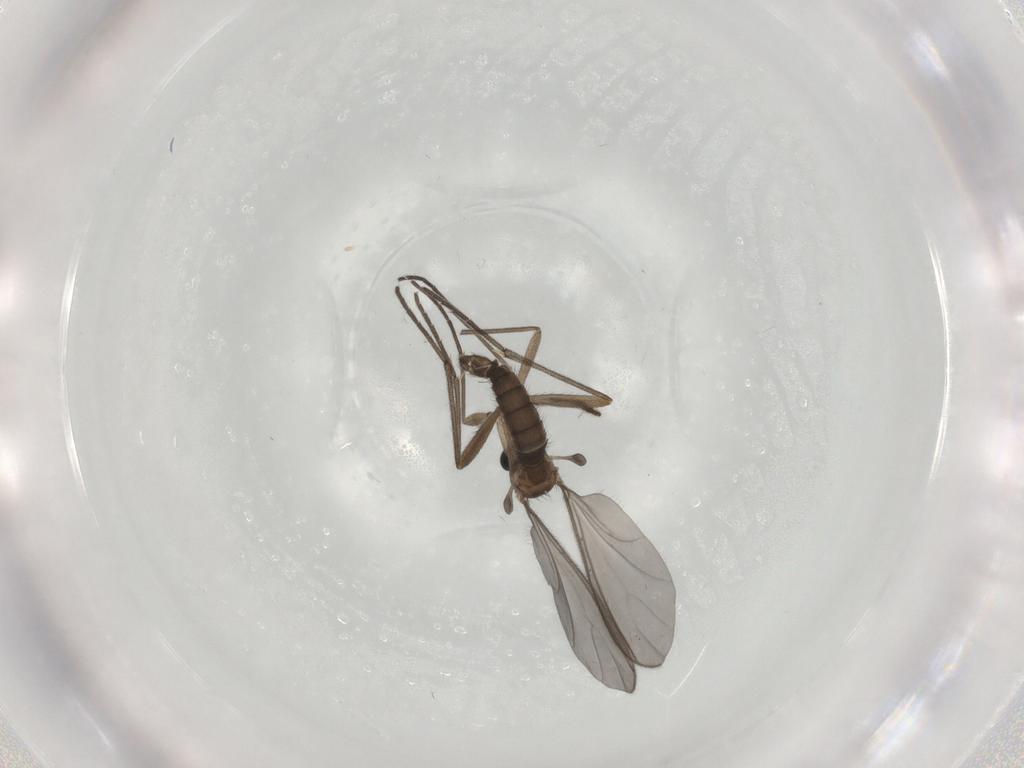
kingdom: Animalia
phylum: Arthropoda
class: Insecta
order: Diptera
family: Sciaridae
